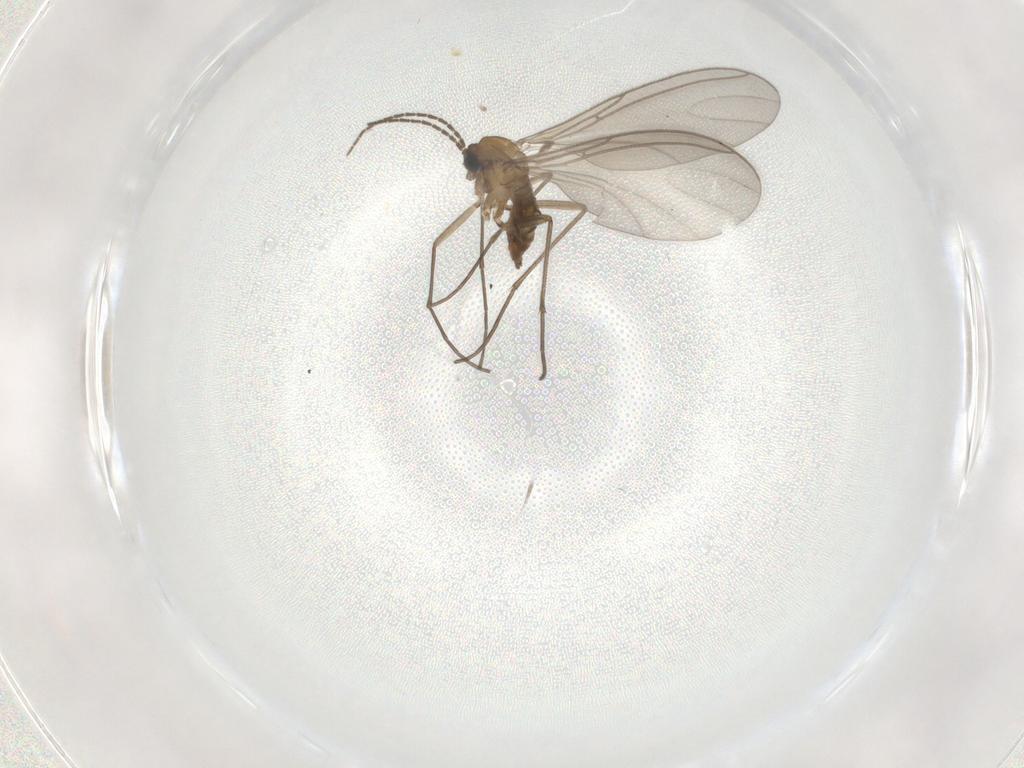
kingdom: Animalia
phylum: Arthropoda
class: Insecta
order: Diptera
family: Sciaridae
